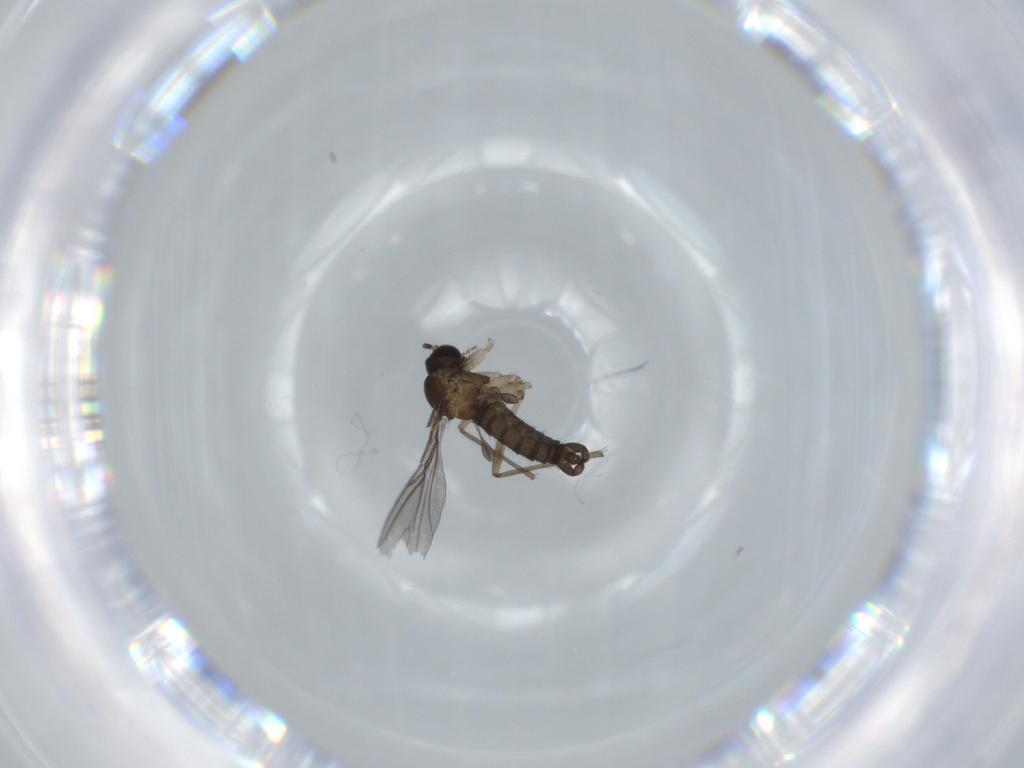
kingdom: Animalia
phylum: Arthropoda
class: Insecta
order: Diptera
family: Sciaridae
